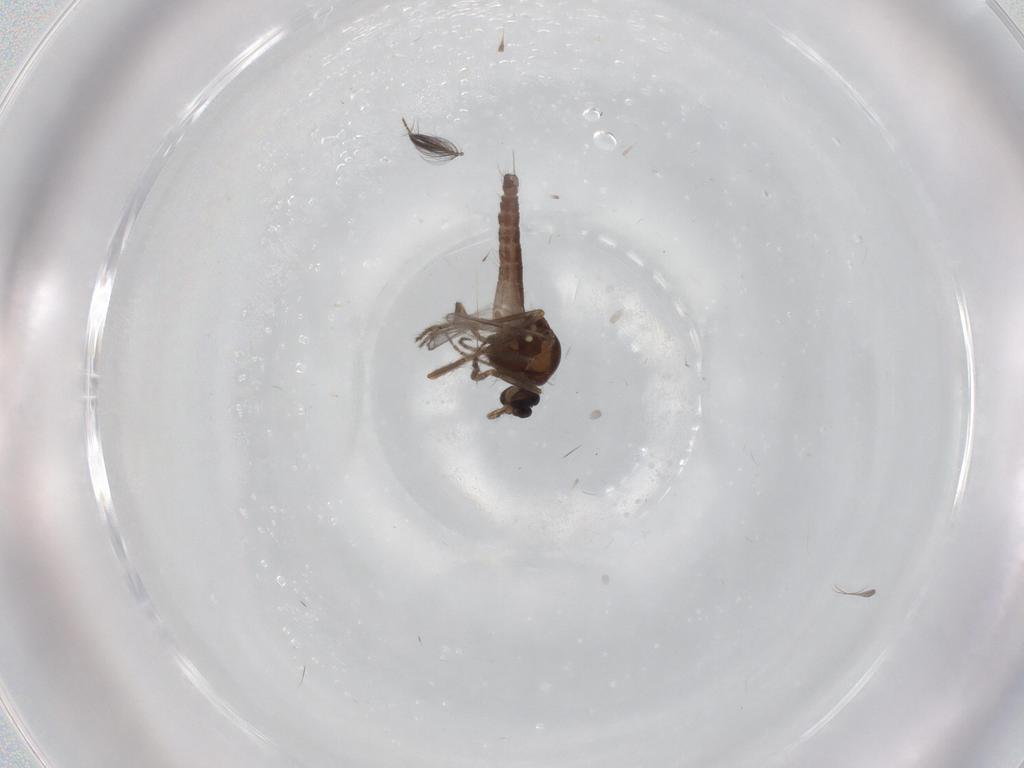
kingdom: Animalia
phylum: Arthropoda
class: Insecta
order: Diptera
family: Ceratopogonidae
